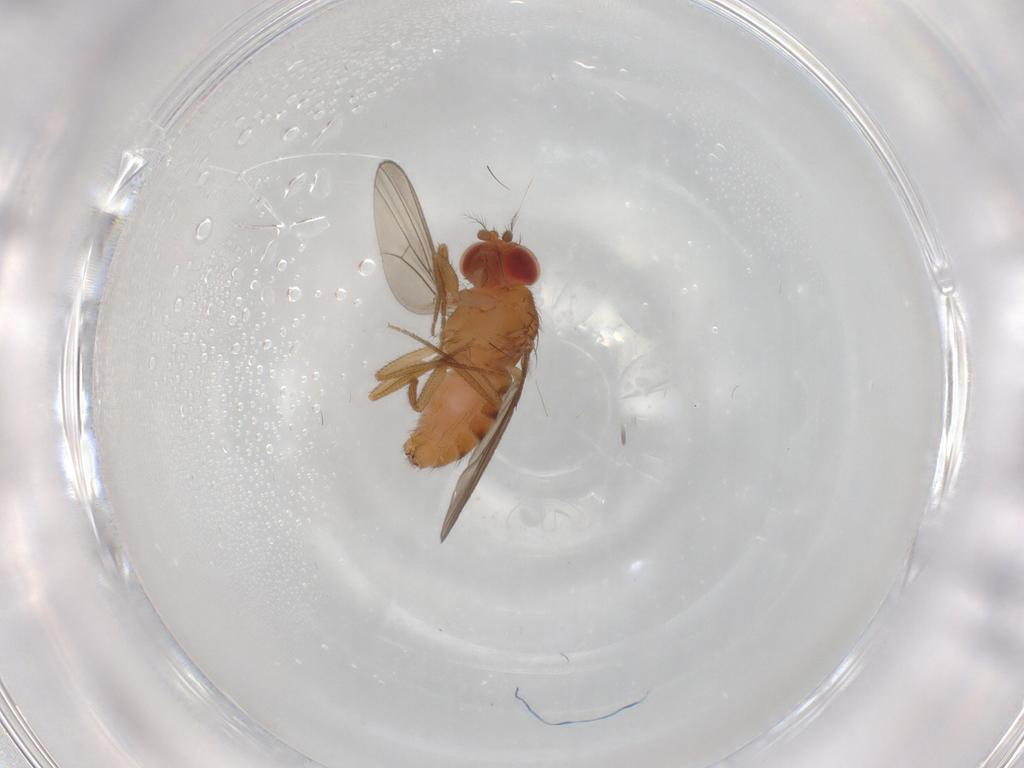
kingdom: Animalia
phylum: Arthropoda
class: Insecta
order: Diptera
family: Drosophilidae
